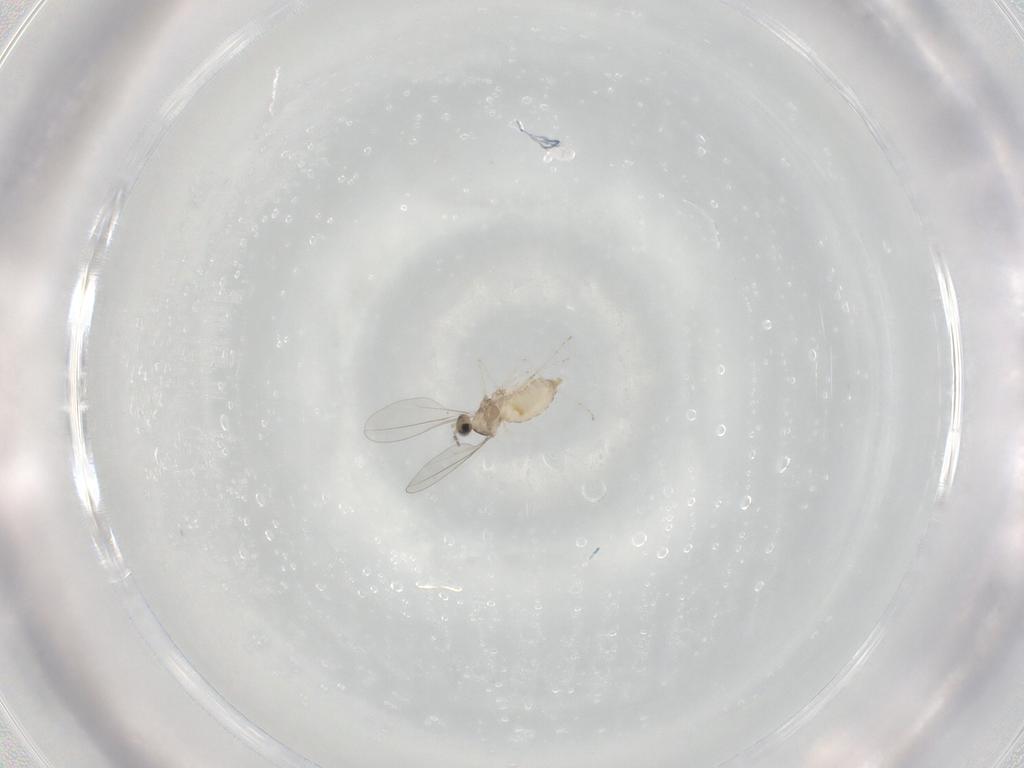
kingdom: Animalia
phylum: Arthropoda
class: Insecta
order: Diptera
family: Cecidomyiidae
